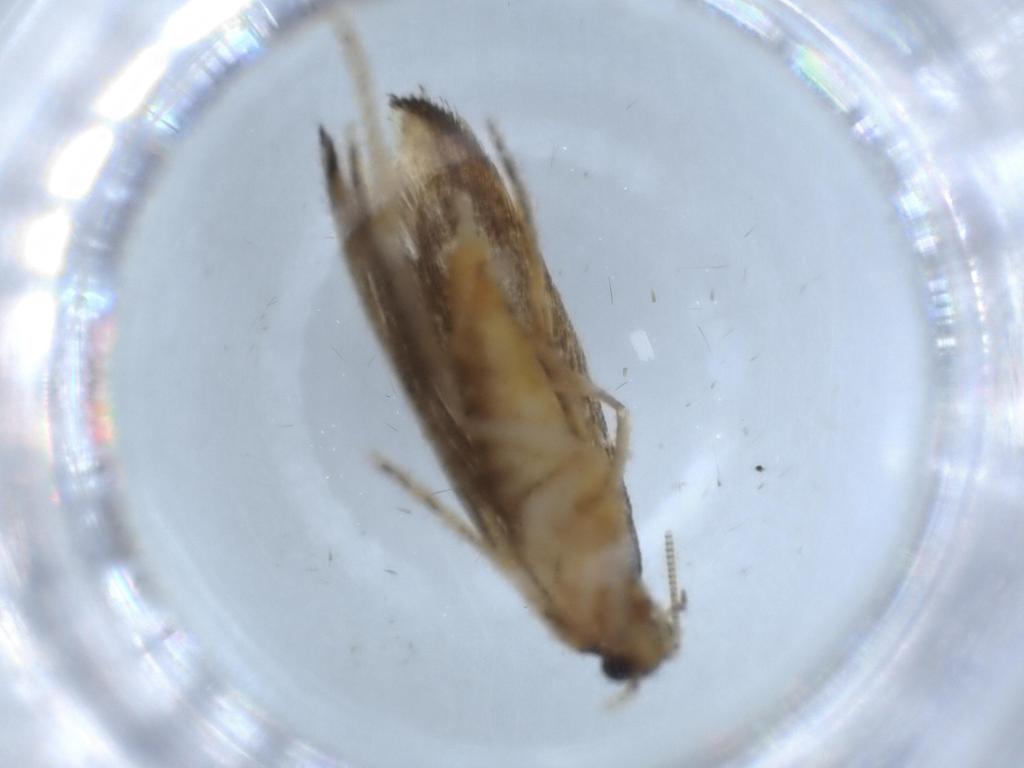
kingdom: Animalia
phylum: Arthropoda
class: Insecta
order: Lepidoptera
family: Tineidae
